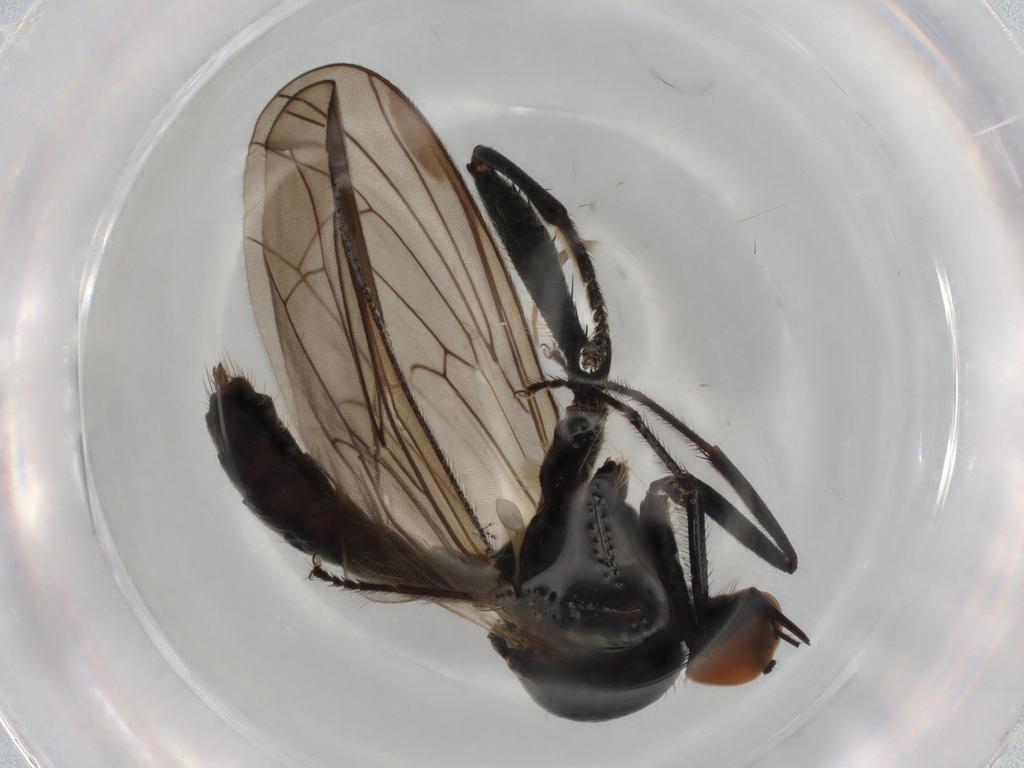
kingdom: Animalia
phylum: Arthropoda
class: Insecta
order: Diptera
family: Hybotidae
